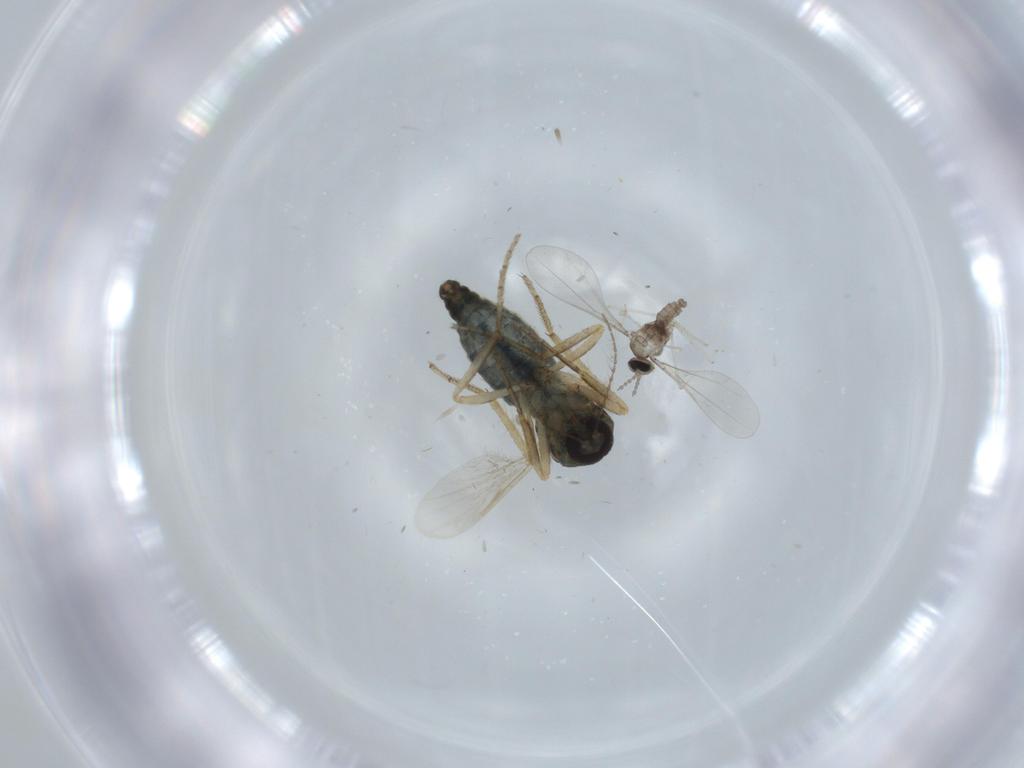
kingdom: Animalia
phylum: Arthropoda
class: Insecta
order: Diptera
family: Ceratopogonidae
